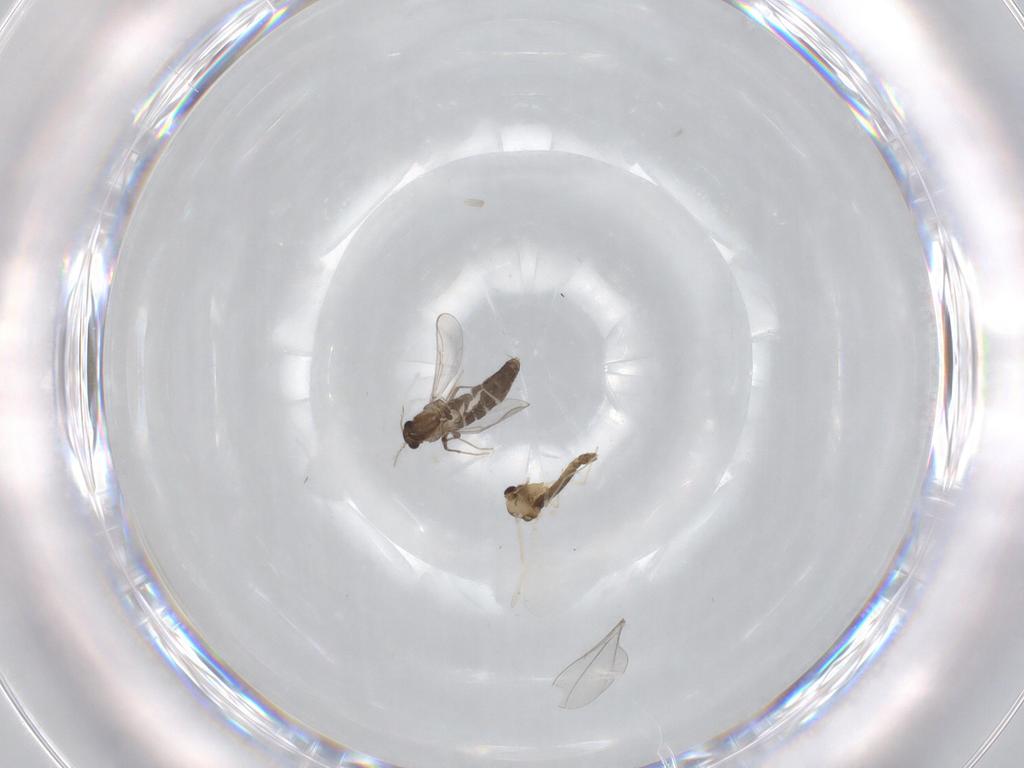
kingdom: Animalia
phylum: Arthropoda
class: Insecta
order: Diptera
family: Chironomidae
